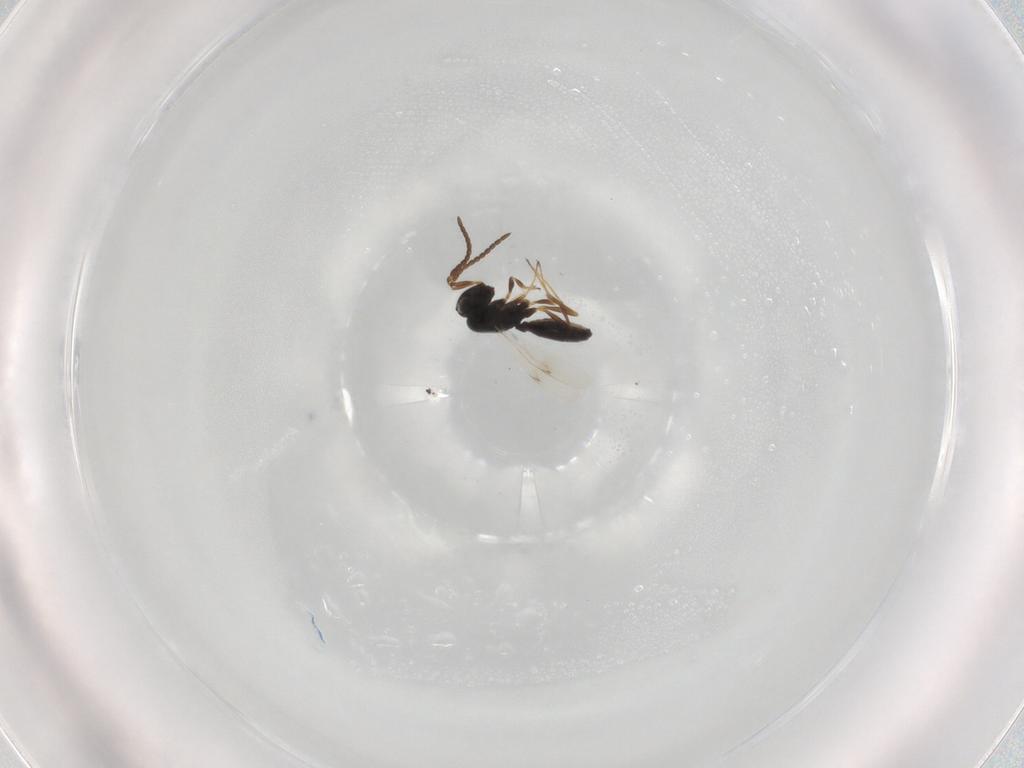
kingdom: Animalia
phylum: Arthropoda
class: Insecta
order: Hymenoptera
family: Scelionidae
